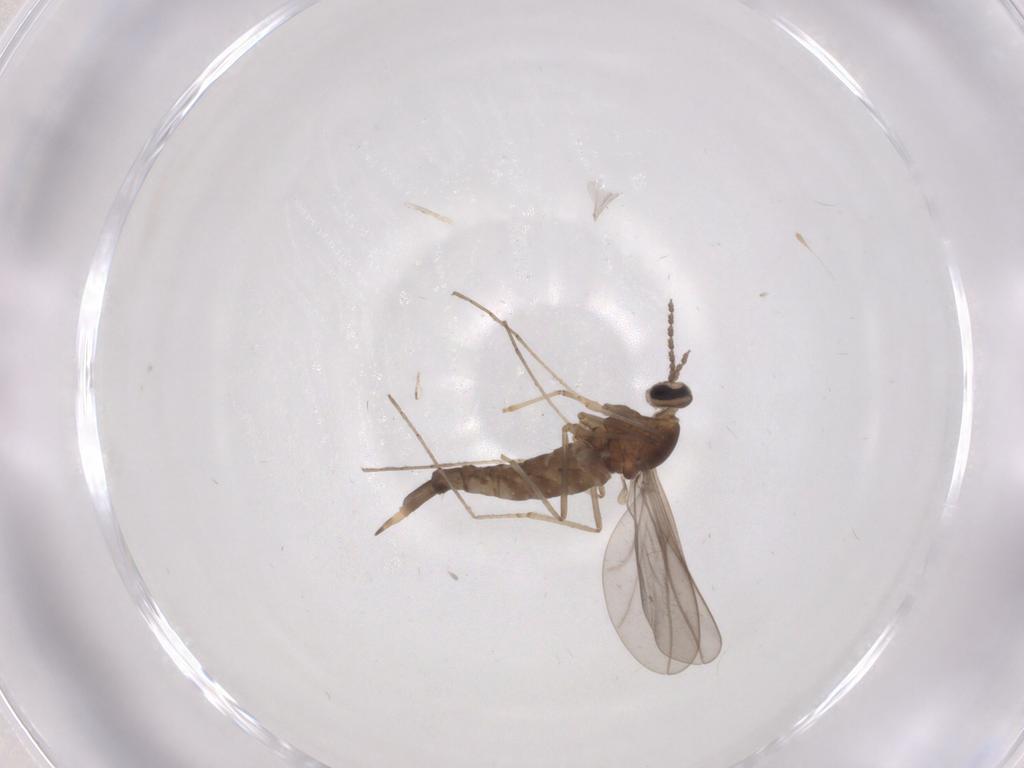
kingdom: Animalia
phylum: Arthropoda
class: Insecta
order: Diptera
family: Cecidomyiidae
